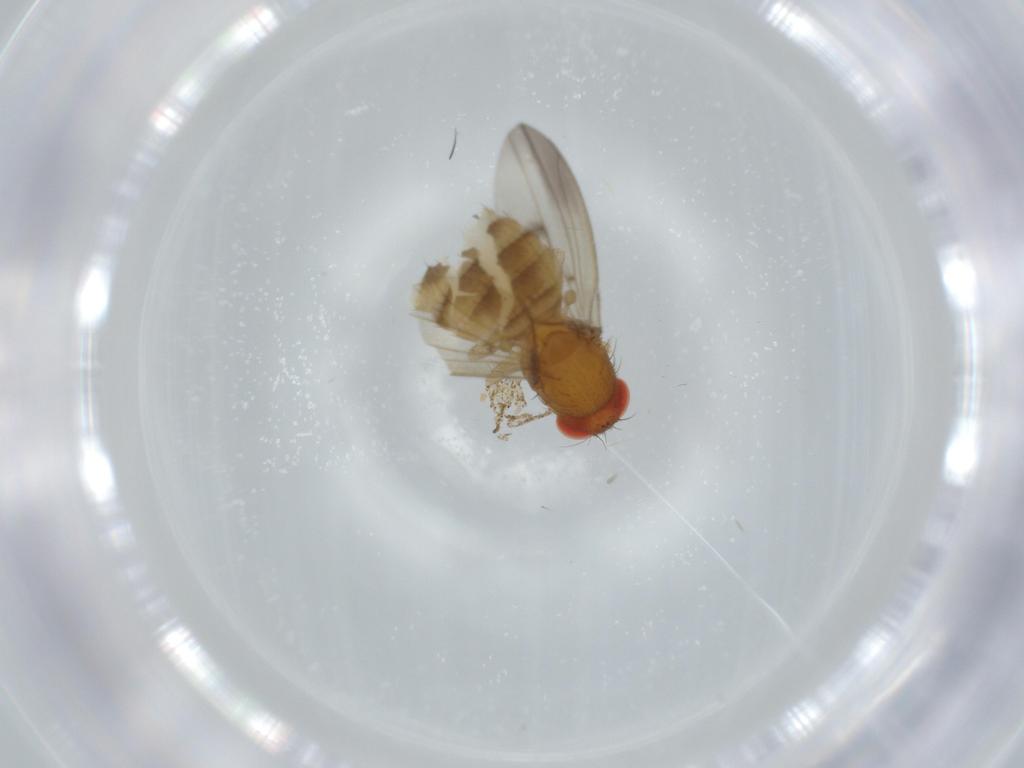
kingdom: Animalia
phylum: Arthropoda
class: Insecta
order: Diptera
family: Drosophilidae
